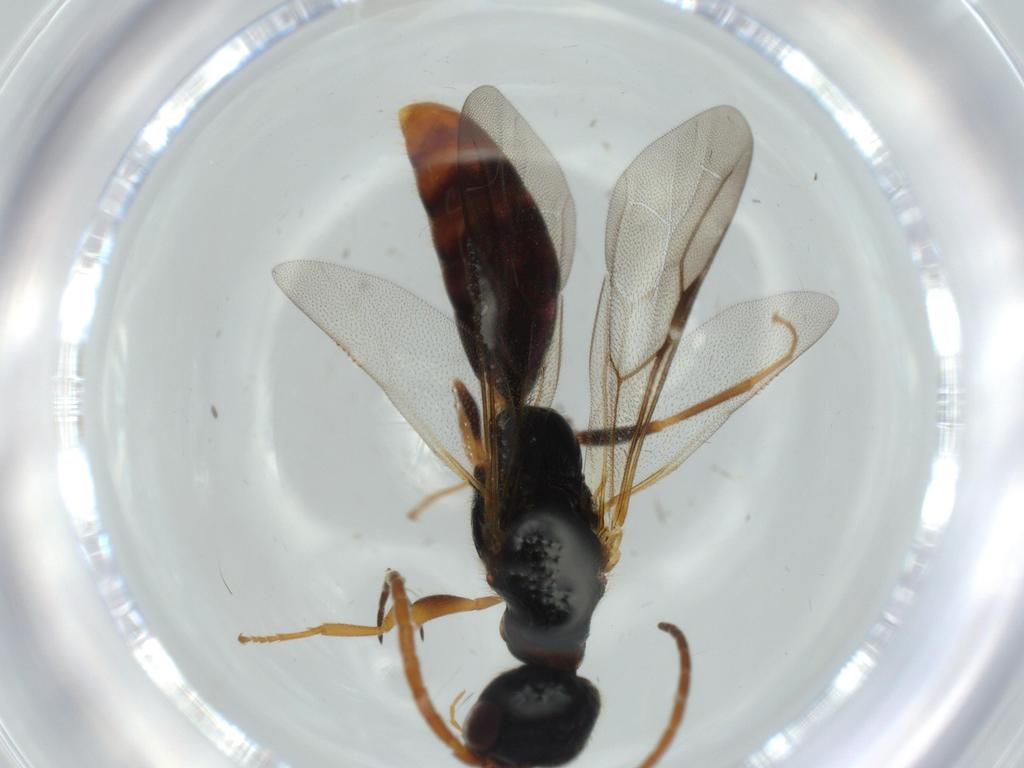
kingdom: Animalia
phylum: Arthropoda
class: Insecta
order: Hymenoptera
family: Bethylidae
